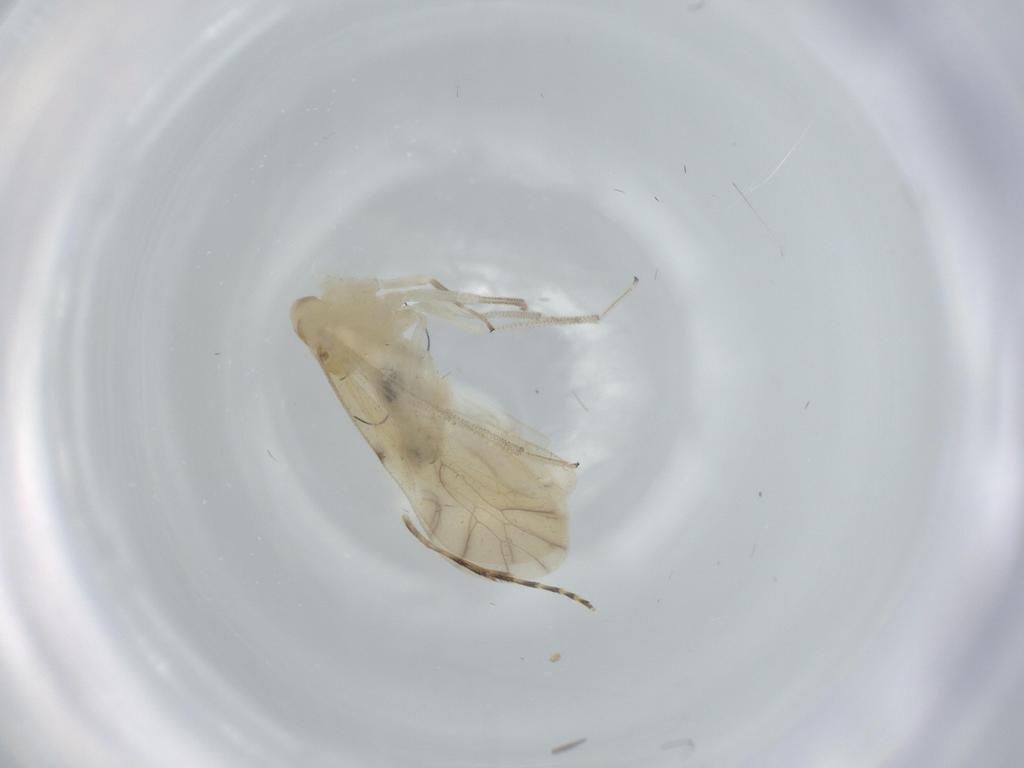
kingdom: Animalia
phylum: Arthropoda
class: Insecta
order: Psocodea
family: Caeciliusidae
